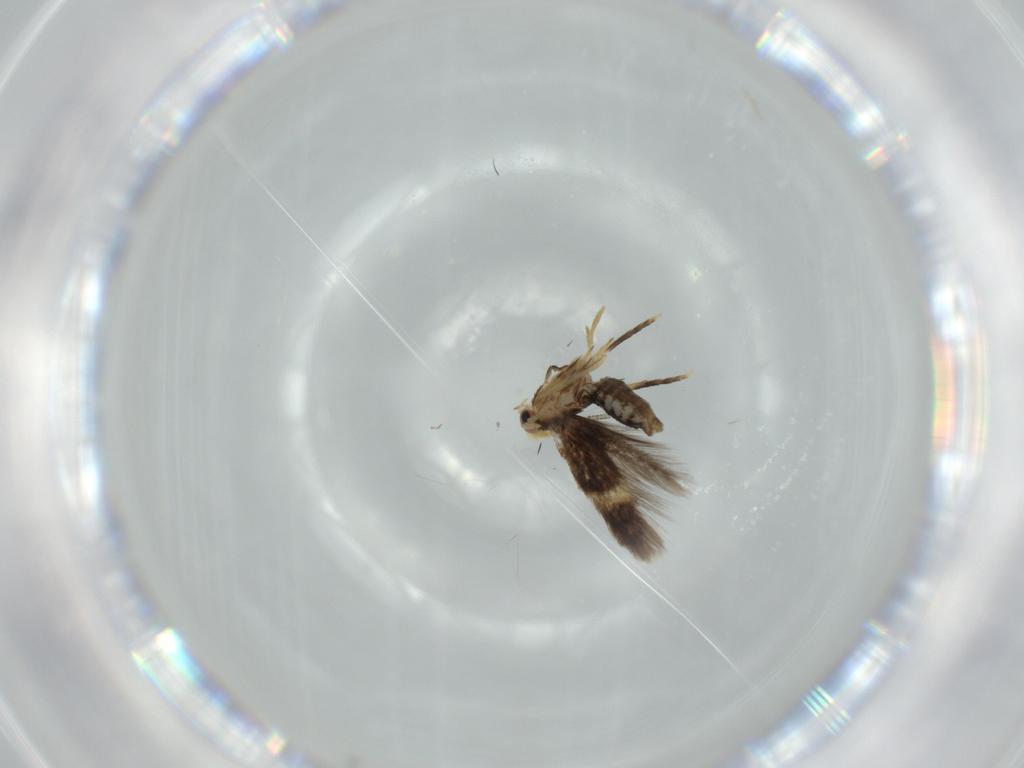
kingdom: Animalia
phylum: Arthropoda
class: Insecta
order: Lepidoptera
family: Nepticulidae
